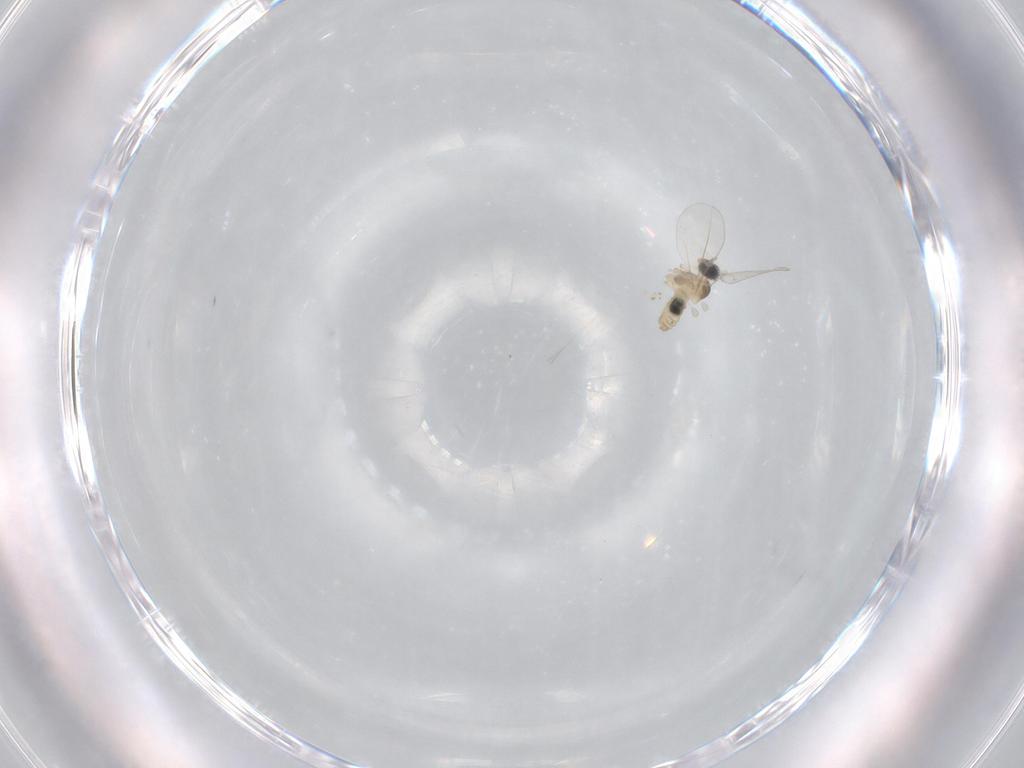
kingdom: Animalia
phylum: Arthropoda
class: Insecta
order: Diptera
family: Cecidomyiidae
